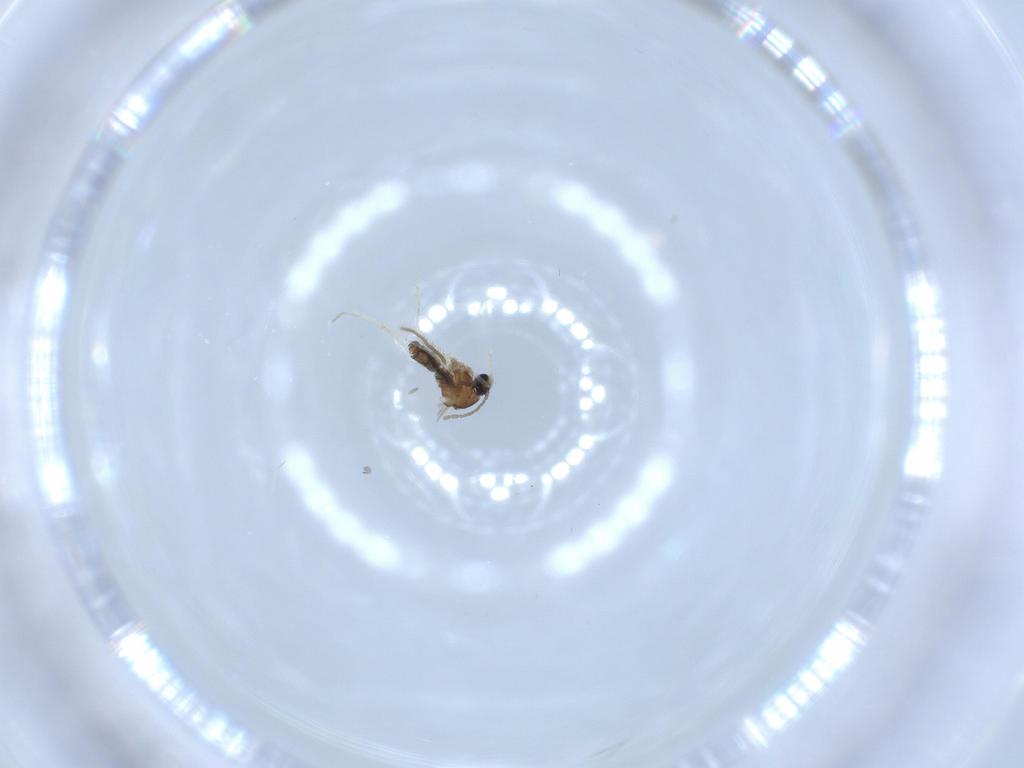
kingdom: Animalia
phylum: Arthropoda
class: Insecta
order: Diptera
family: Cecidomyiidae
